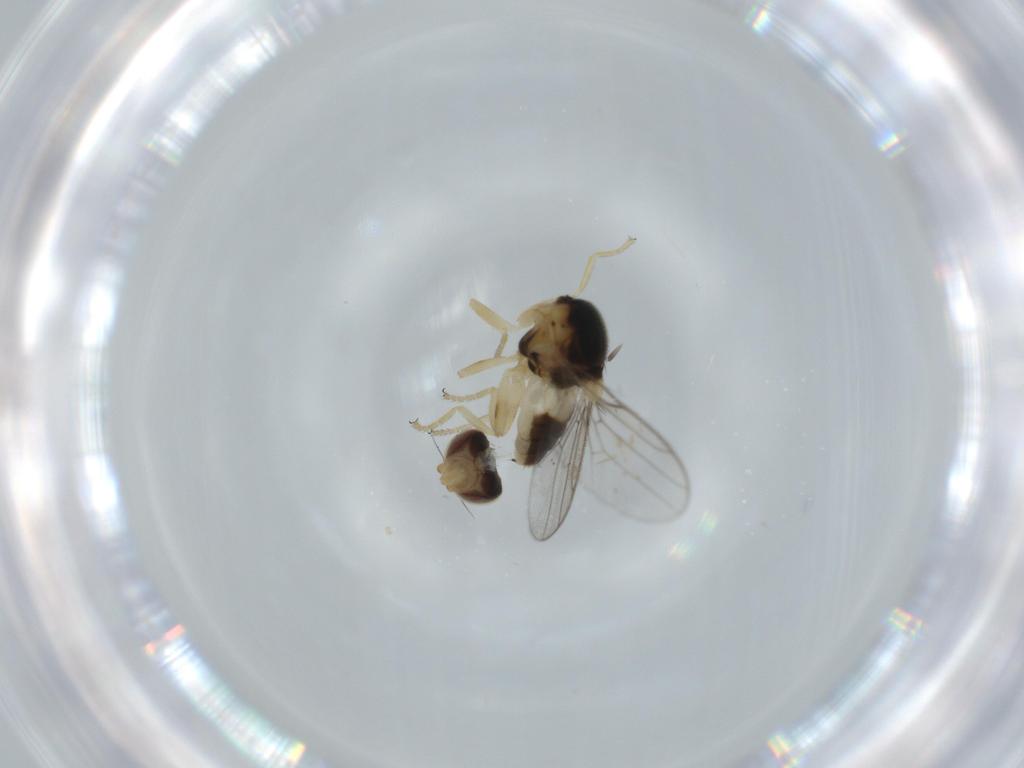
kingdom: Animalia
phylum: Arthropoda
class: Insecta
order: Diptera
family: Chloropidae
